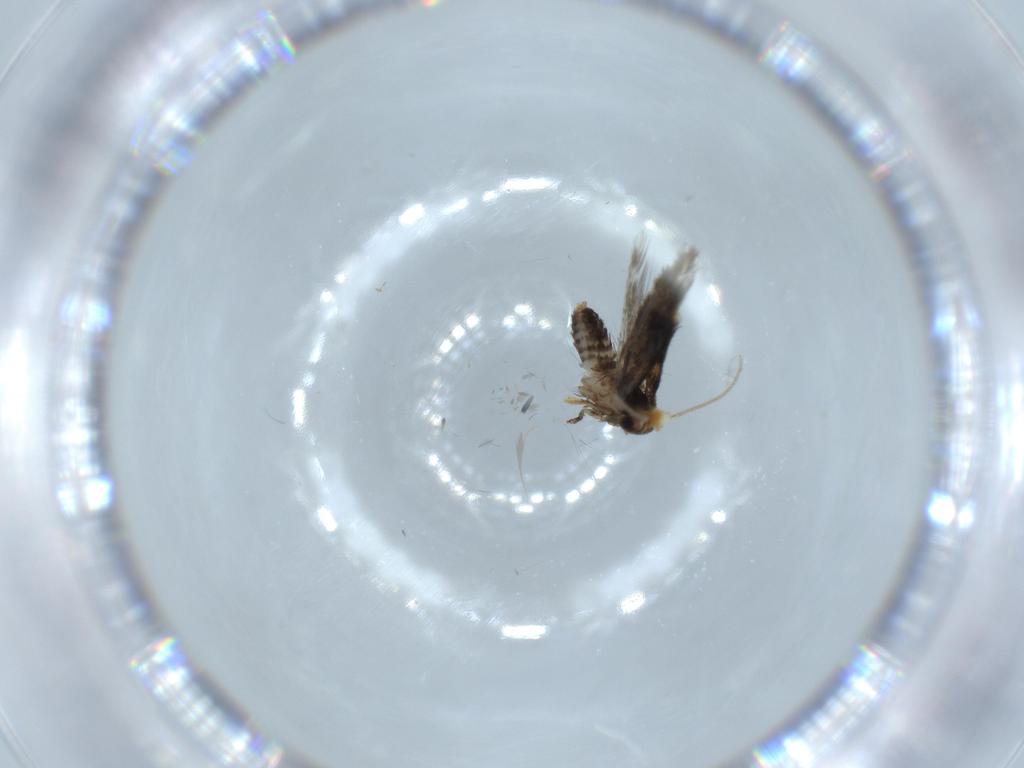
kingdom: Animalia
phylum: Arthropoda
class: Insecta
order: Lepidoptera
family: Nepticulidae
